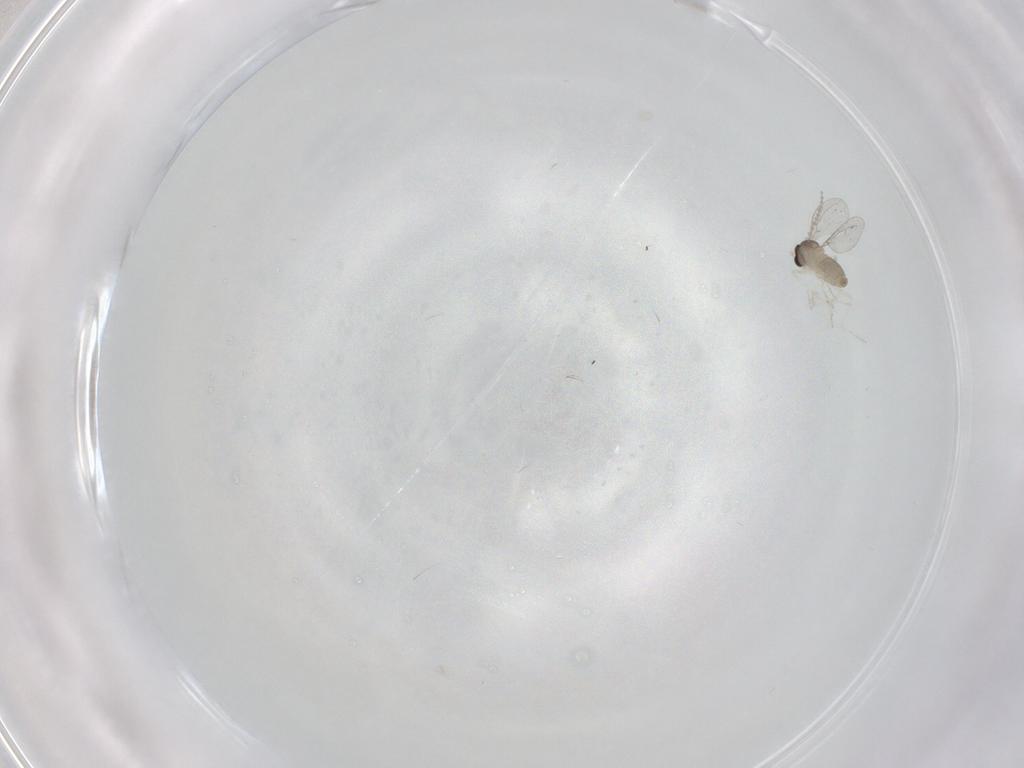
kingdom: Animalia
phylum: Arthropoda
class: Insecta
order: Diptera
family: Cecidomyiidae
